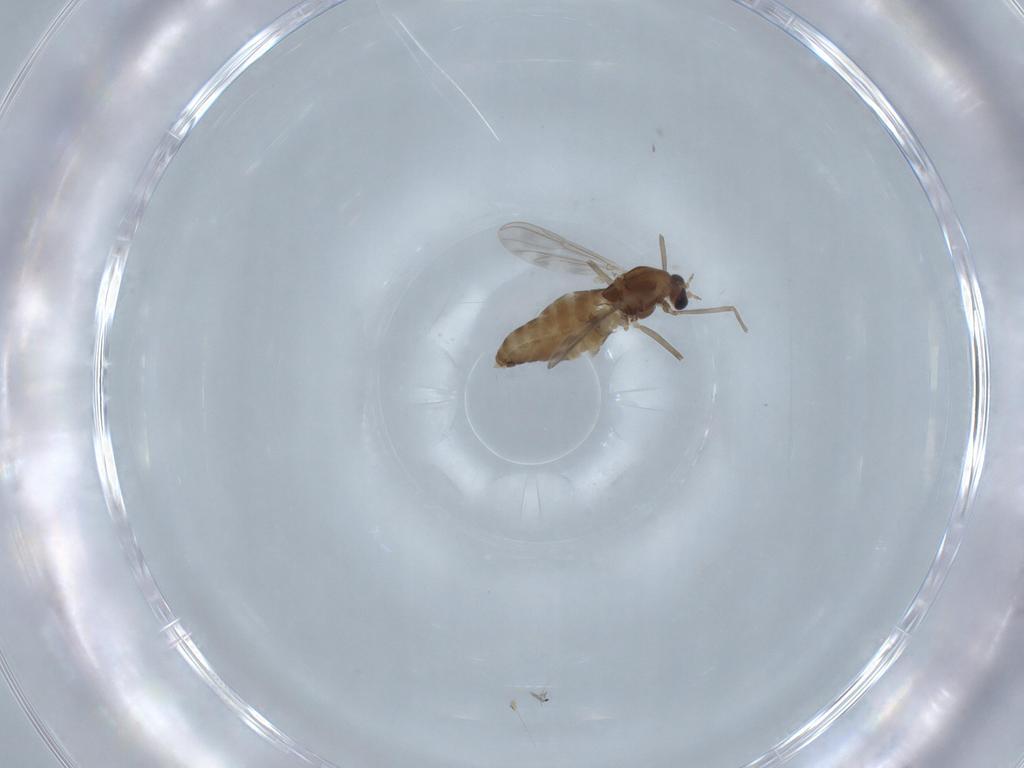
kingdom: Animalia
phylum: Arthropoda
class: Insecta
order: Diptera
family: Chironomidae
